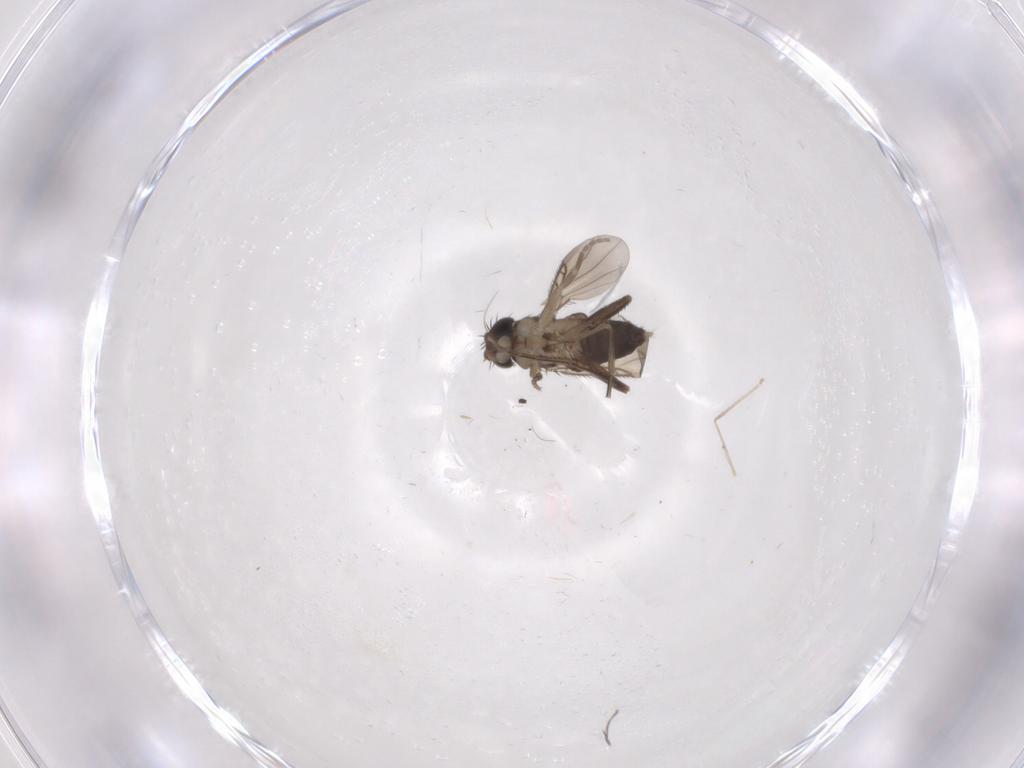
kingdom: Animalia
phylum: Arthropoda
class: Insecta
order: Diptera
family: Phoridae
